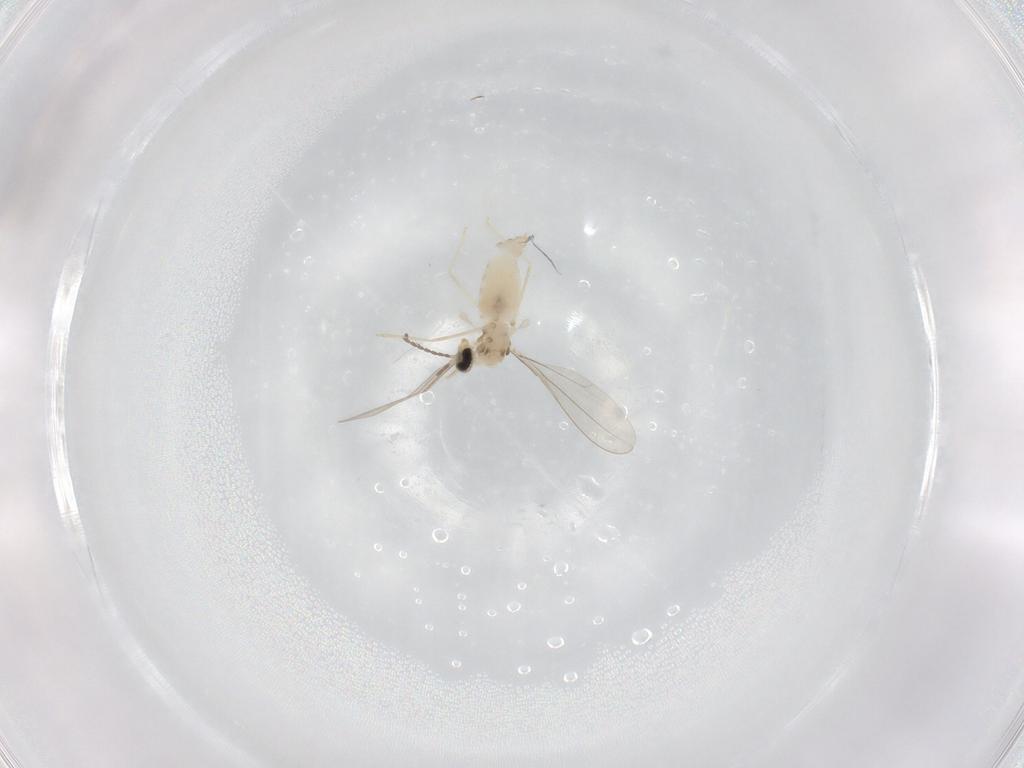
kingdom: Animalia
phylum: Arthropoda
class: Insecta
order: Diptera
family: Cecidomyiidae
